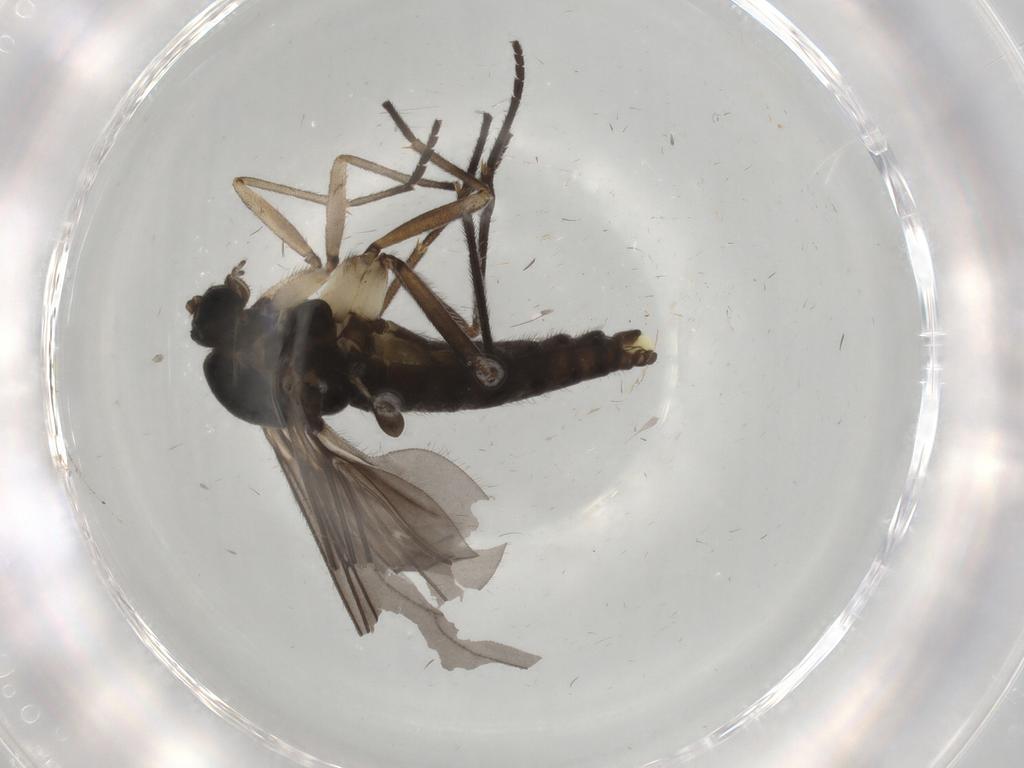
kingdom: Animalia
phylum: Arthropoda
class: Insecta
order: Diptera
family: Sciaridae
